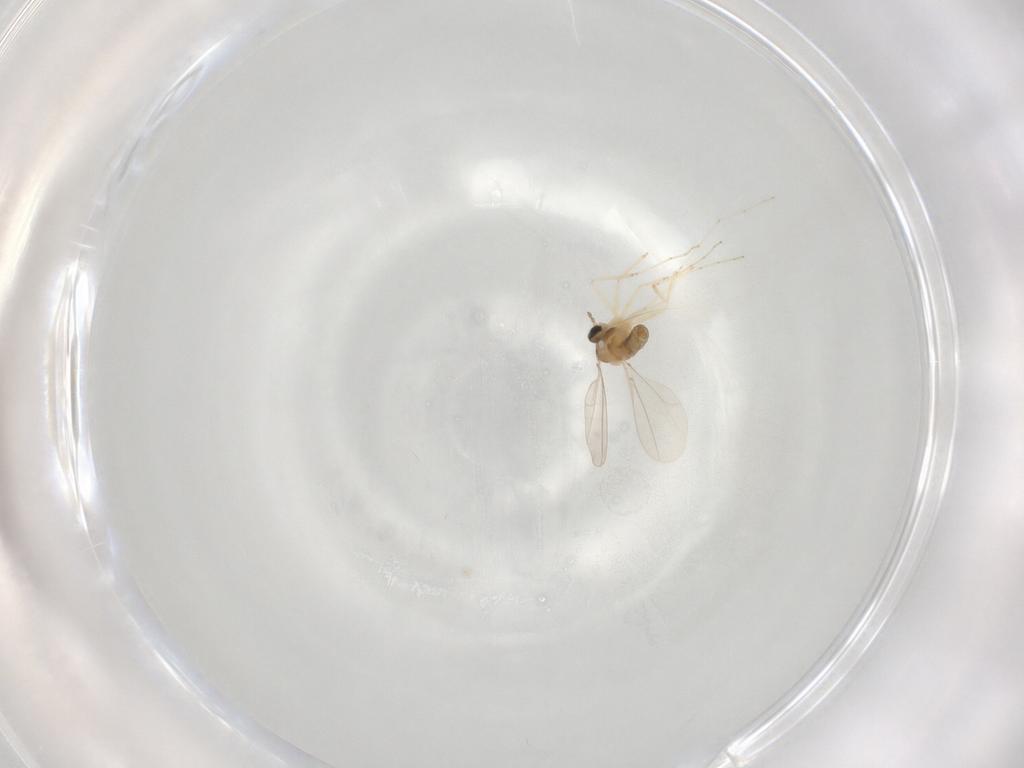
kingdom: Animalia
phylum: Arthropoda
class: Insecta
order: Diptera
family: Cecidomyiidae
